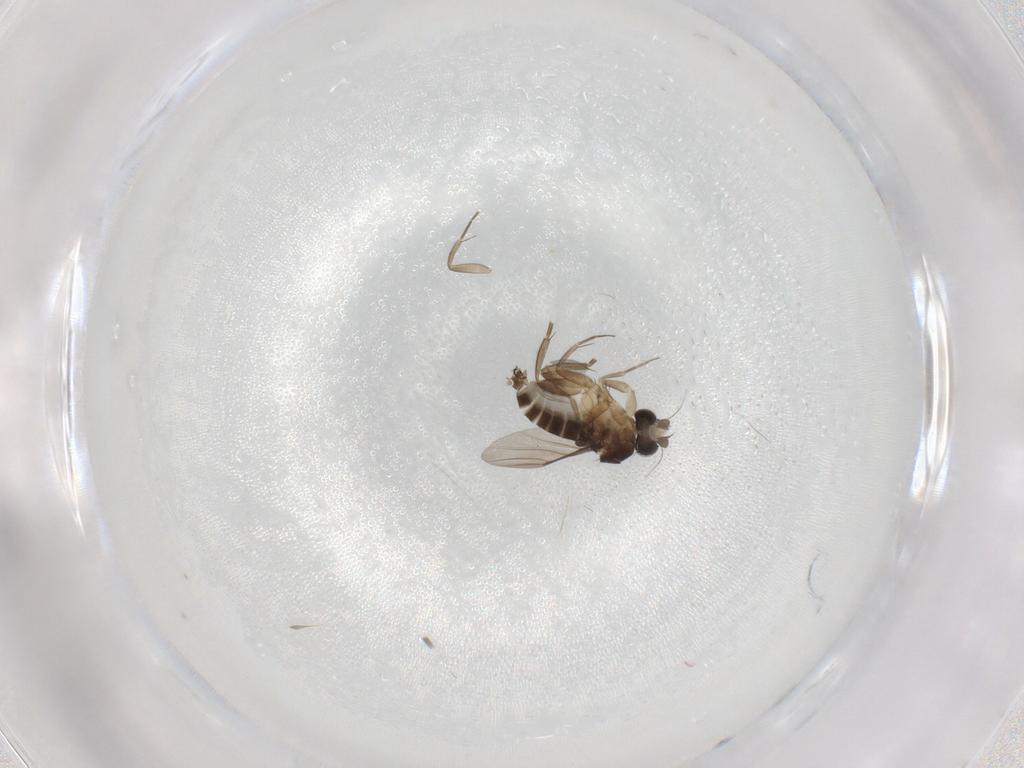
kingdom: Animalia
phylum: Arthropoda
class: Insecta
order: Diptera
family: Phoridae
